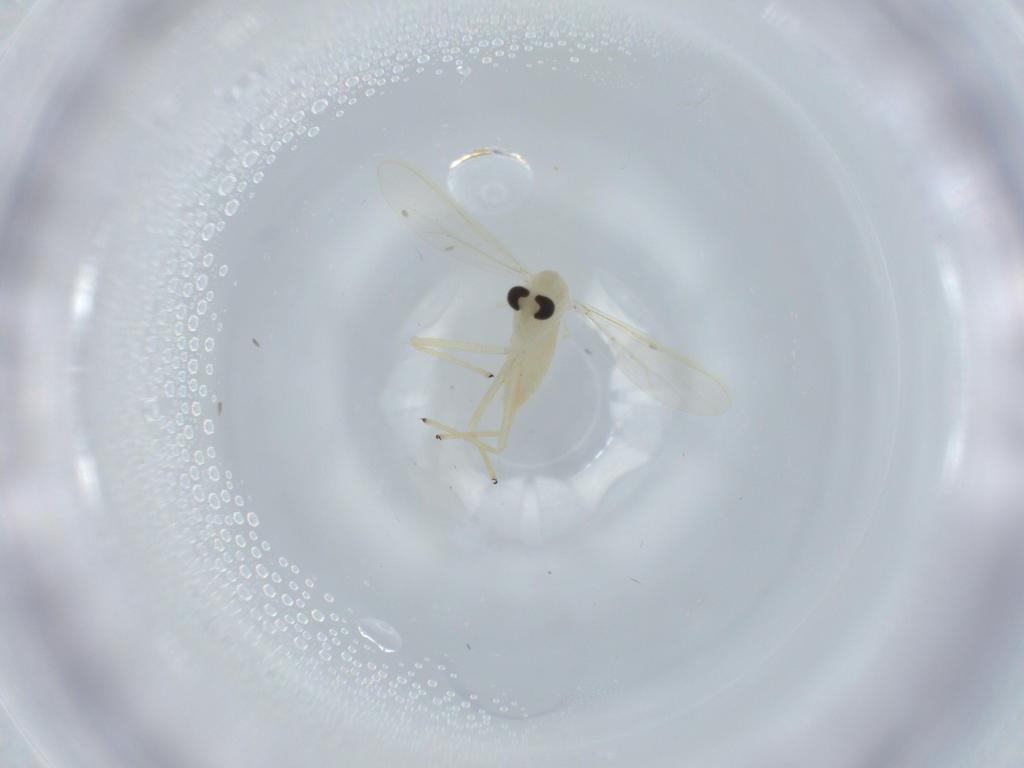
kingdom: Animalia
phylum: Arthropoda
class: Insecta
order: Diptera
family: Chironomidae
